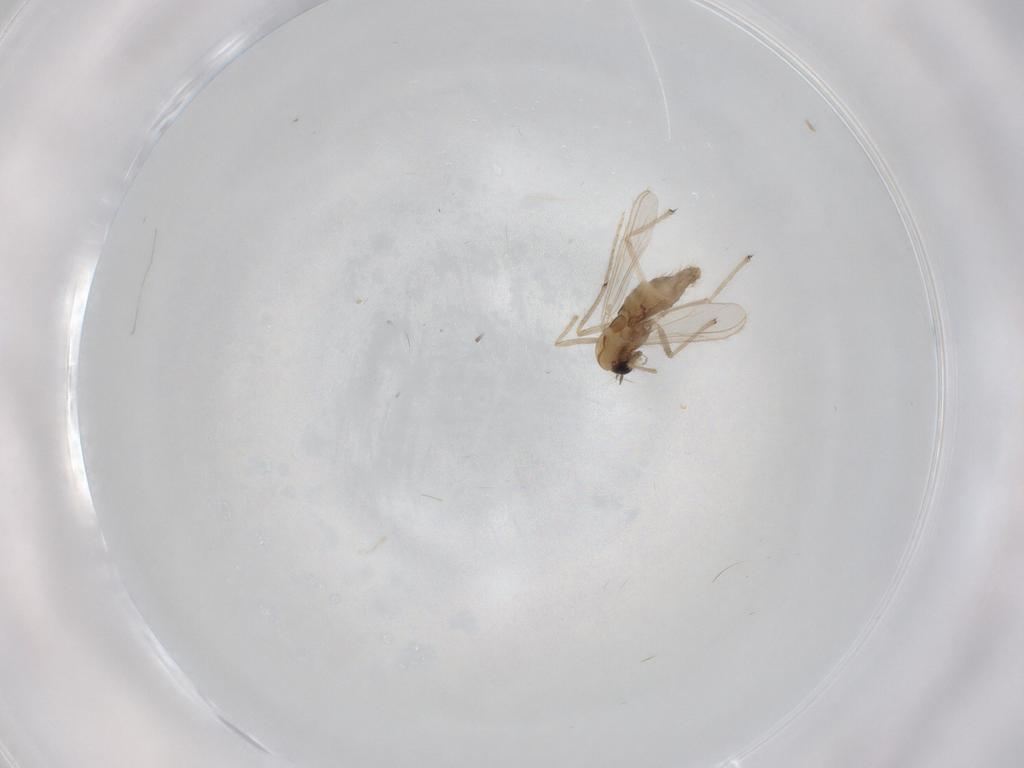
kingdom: Animalia
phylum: Arthropoda
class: Insecta
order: Diptera
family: Chironomidae
